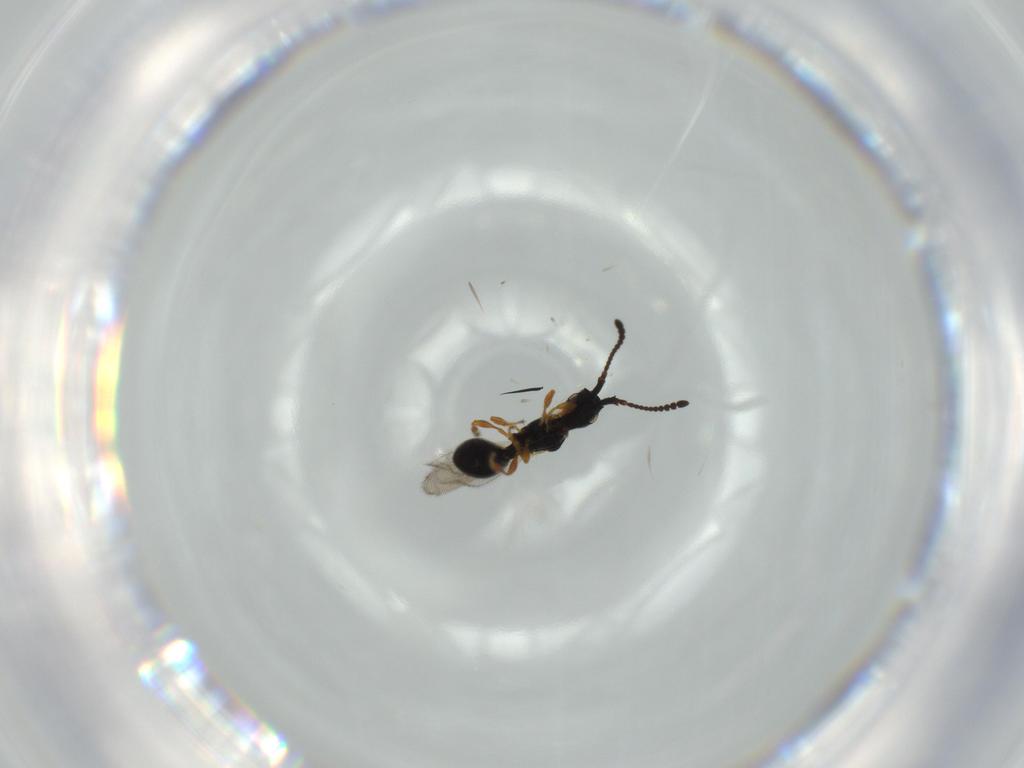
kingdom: Animalia
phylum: Arthropoda
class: Insecta
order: Hymenoptera
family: Diapriidae
